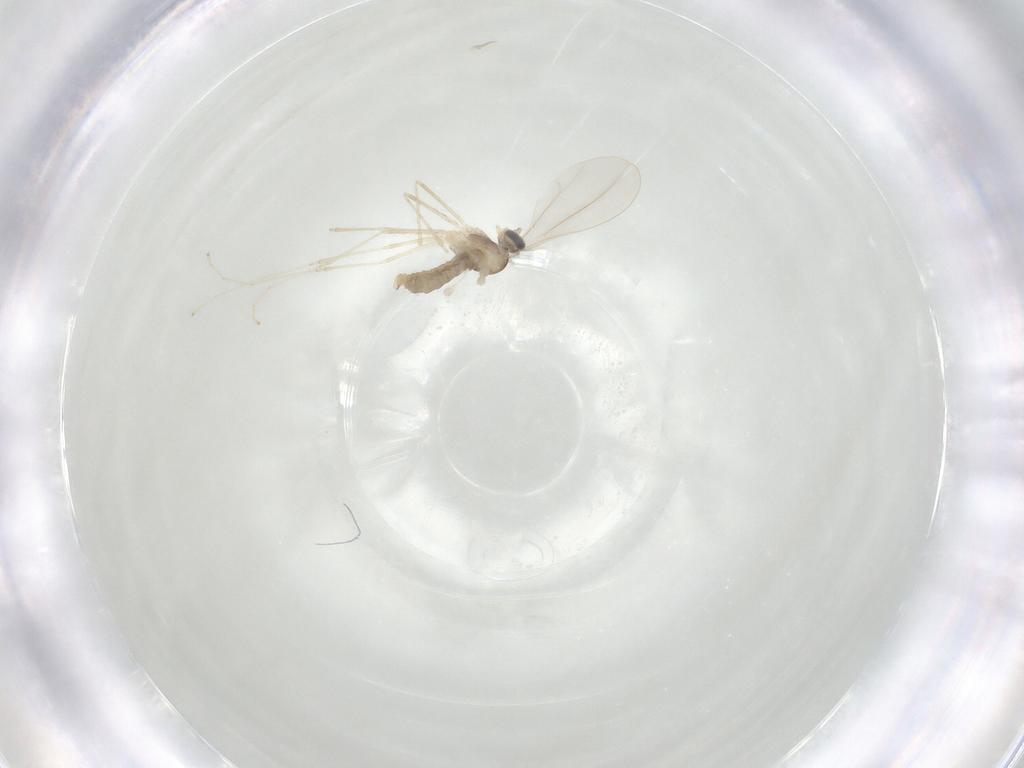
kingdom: Animalia
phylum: Arthropoda
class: Insecta
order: Diptera
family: Cecidomyiidae
